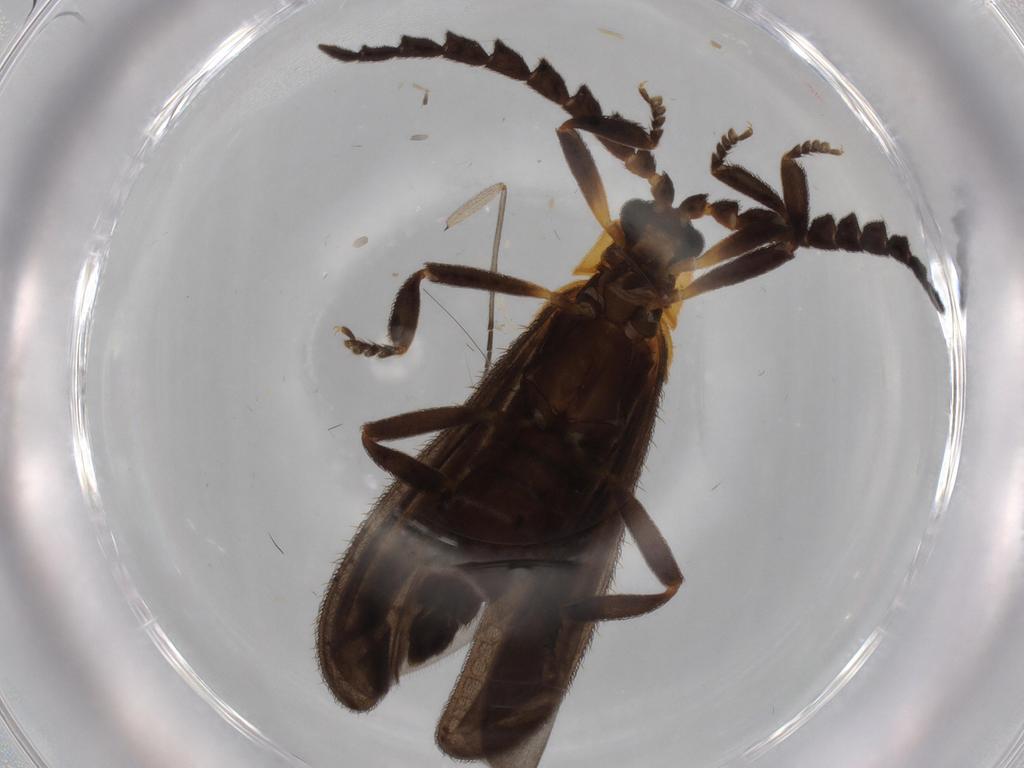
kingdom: Animalia
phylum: Arthropoda
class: Insecta
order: Coleoptera
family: Lycidae
